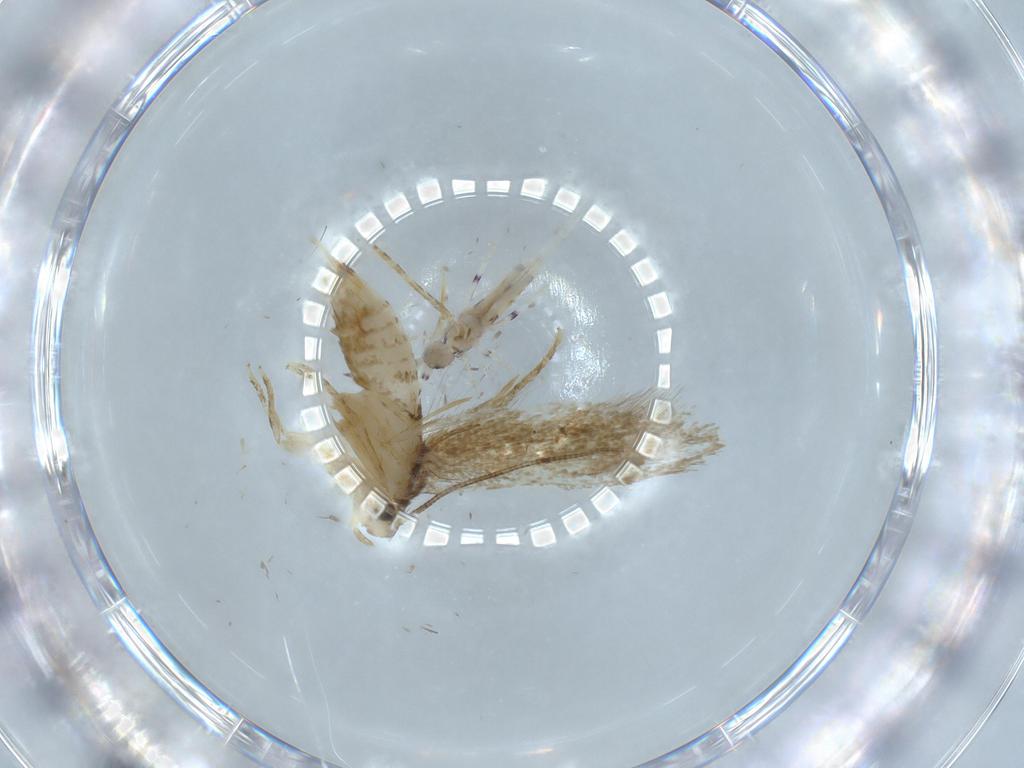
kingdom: Animalia
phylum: Arthropoda
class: Insecta
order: Lepidoptera
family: Tineidae
